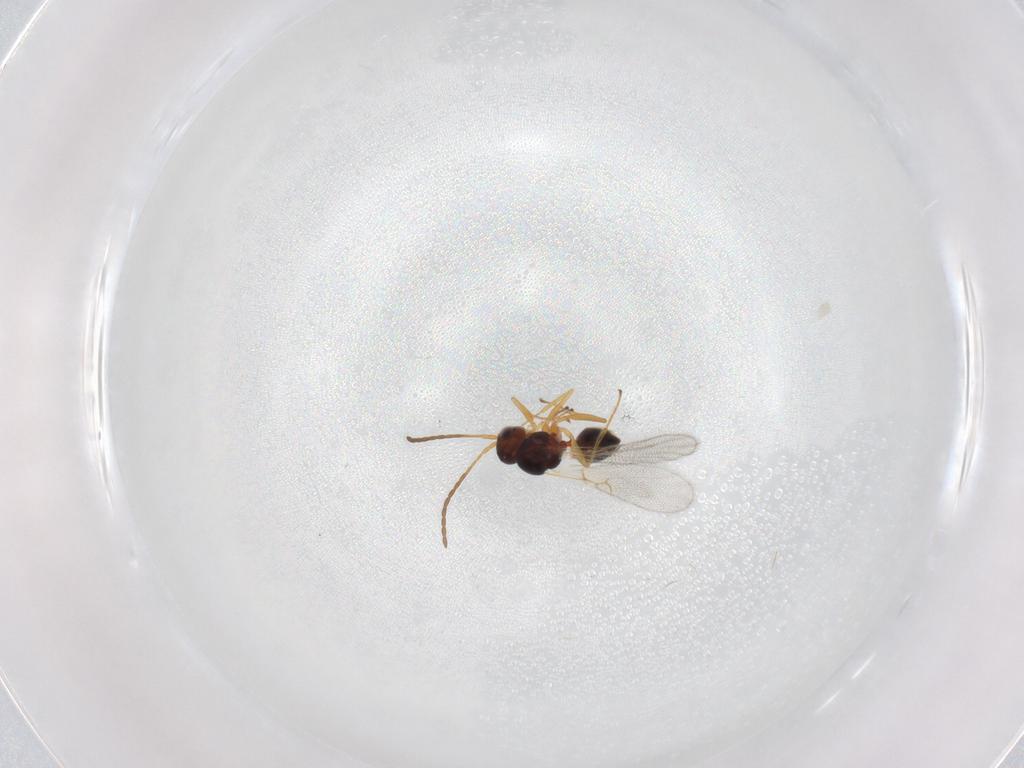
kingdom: Animalia
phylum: Arthropoda
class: Insecta
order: Hymenoptera
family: Figitidae
